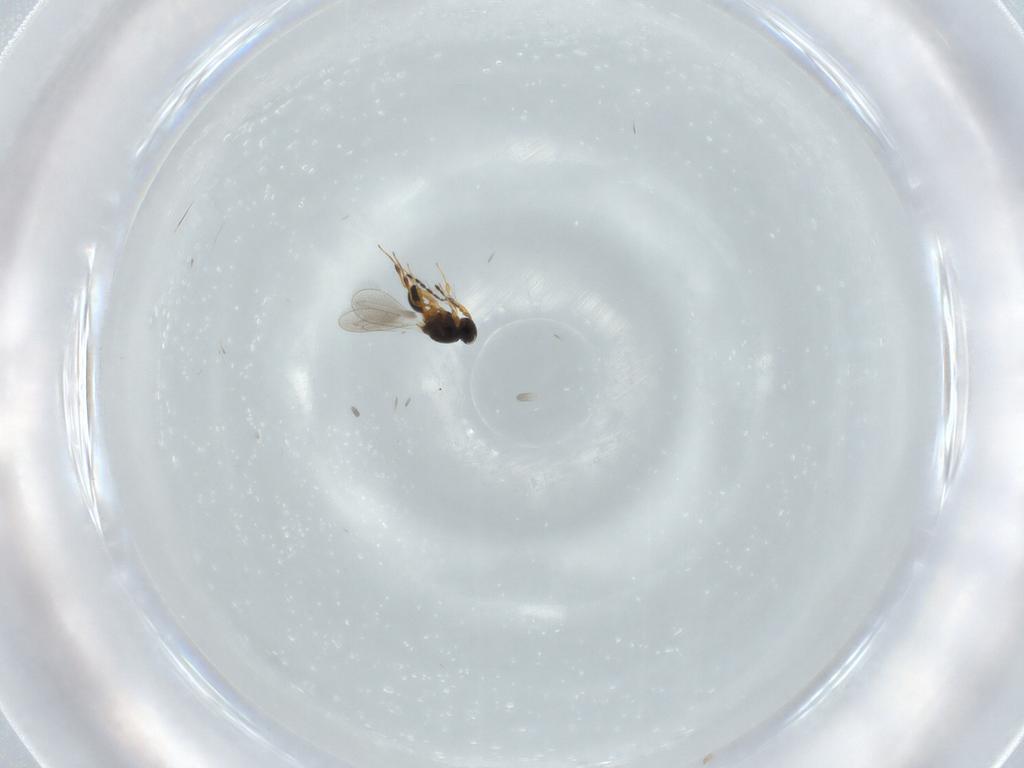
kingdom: Animalia
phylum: Arthropoda
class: Insecta
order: Hymenoptera
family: Platygastridae
